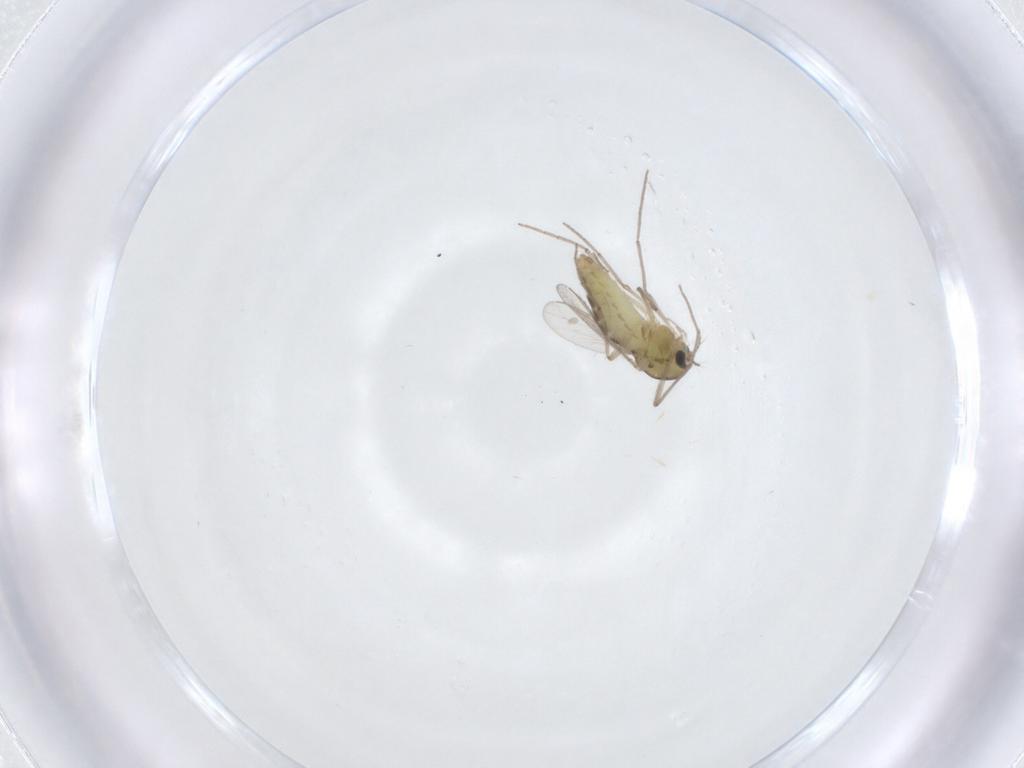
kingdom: Animalia
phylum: Arthropoda
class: Insecta
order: Diptera
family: Chironomidae
